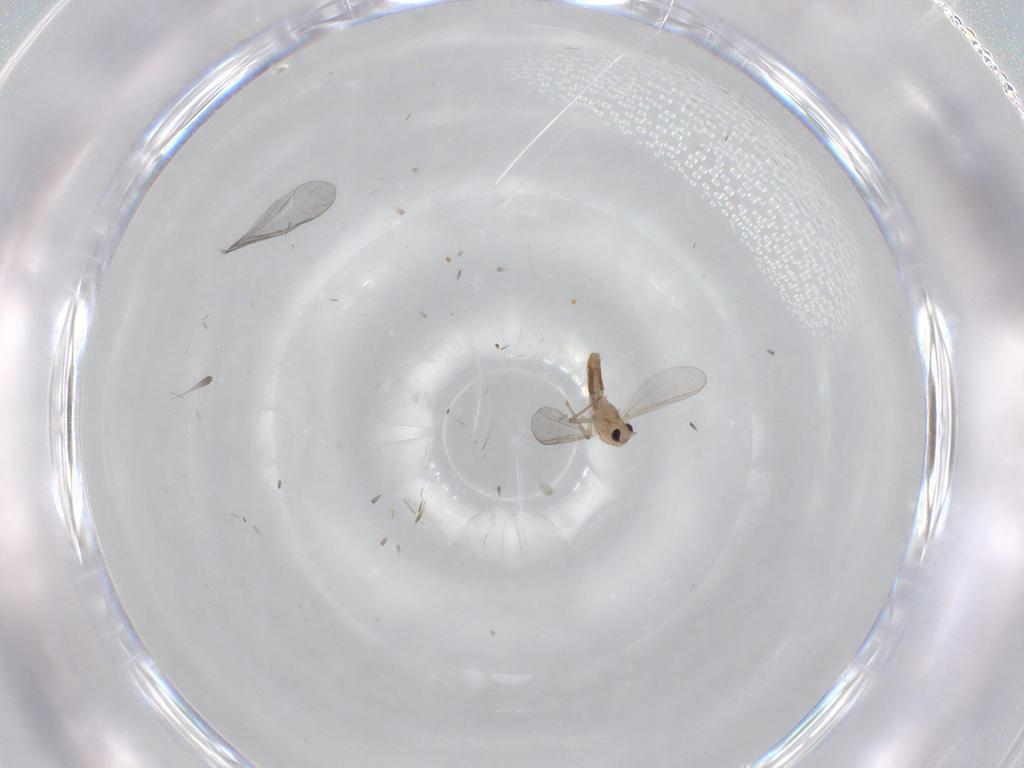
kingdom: Animalia
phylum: Arthropoda
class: Insecta
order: Diptera
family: Chironomidae
